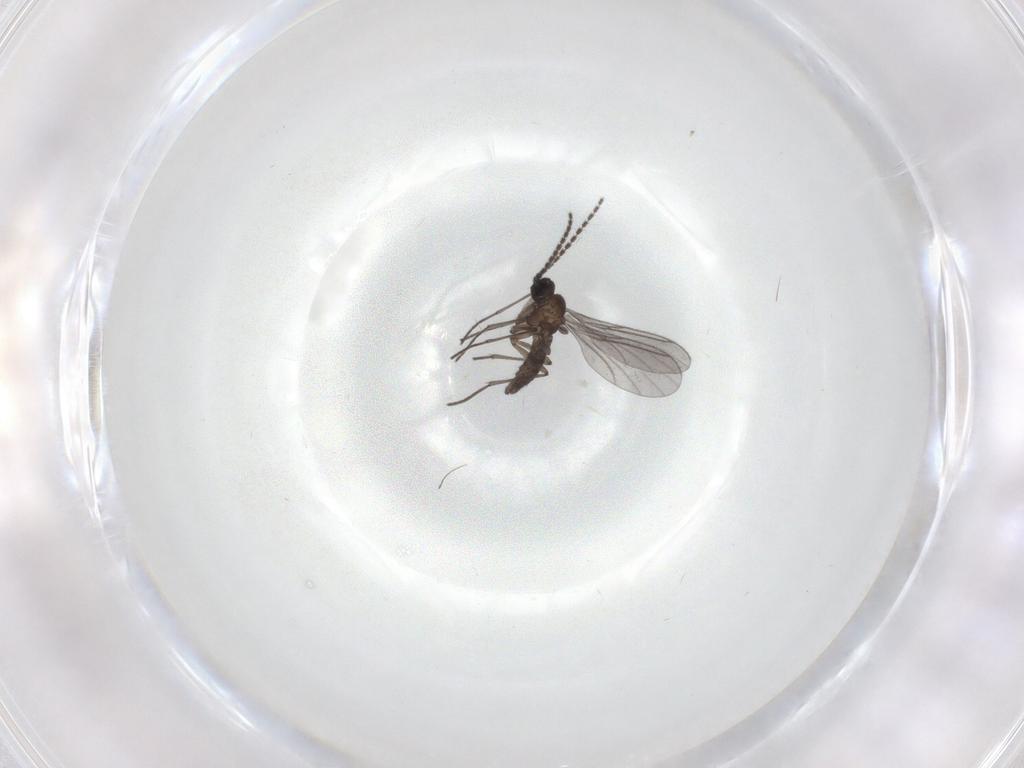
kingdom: Animalia
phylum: Arthropoda
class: Insecta
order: Diptera
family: Ceratopogonidae
